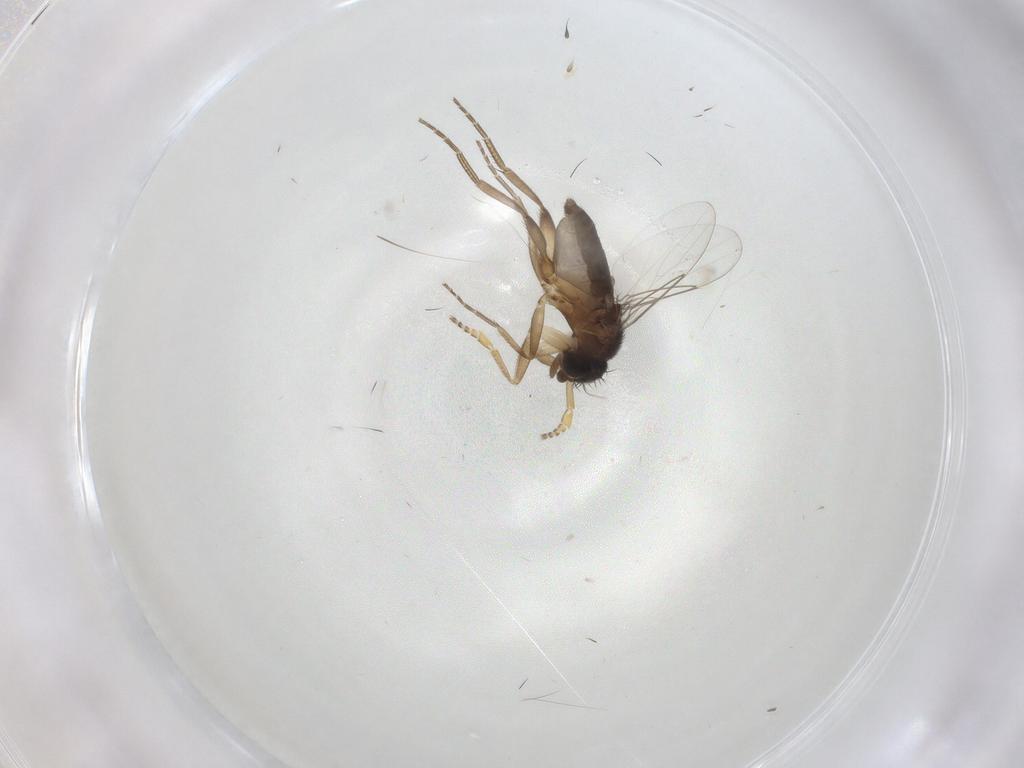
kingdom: Animalia
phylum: Arthropoda
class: Insecta
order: Diptera
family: Phoridae
